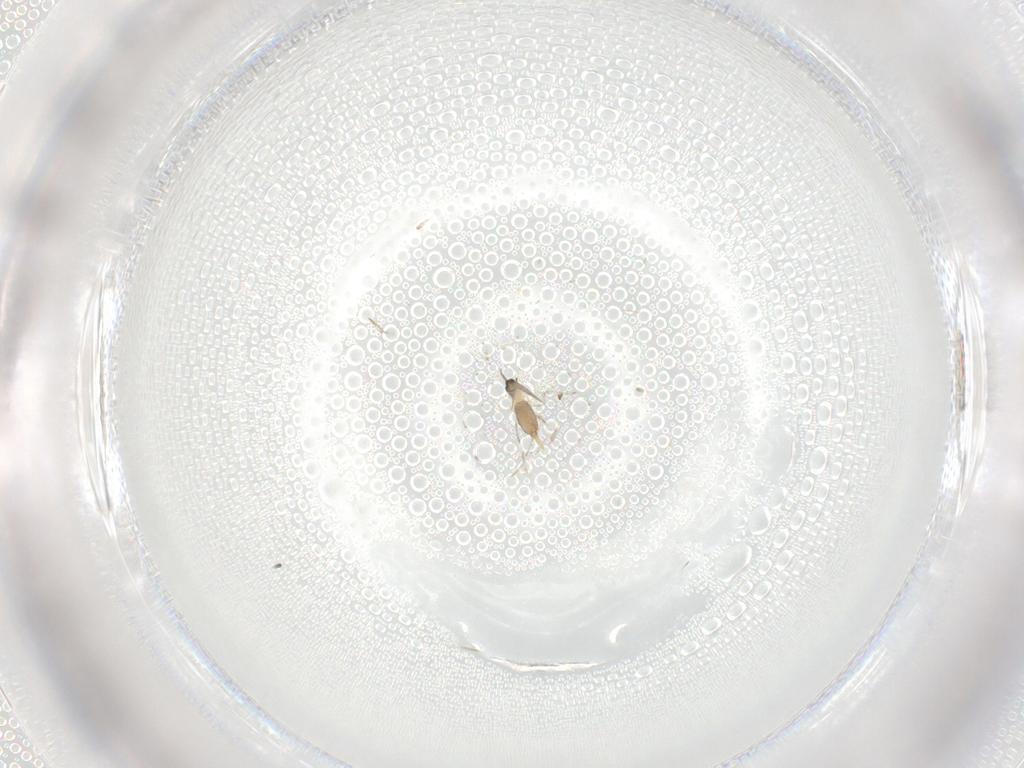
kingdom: Animalia
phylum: Arthropoda
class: Insecta
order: Diptera
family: Cecidomyiidae
